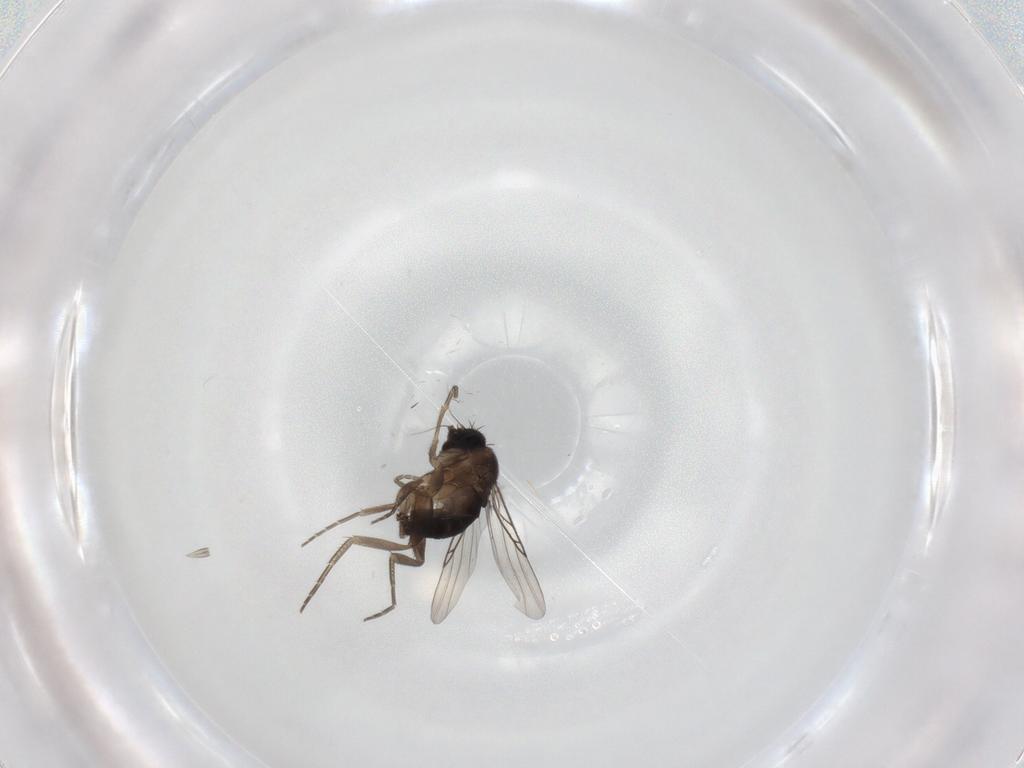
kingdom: Animalia
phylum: Arthropoda
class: Insecta
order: Diptera
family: Phoridae
